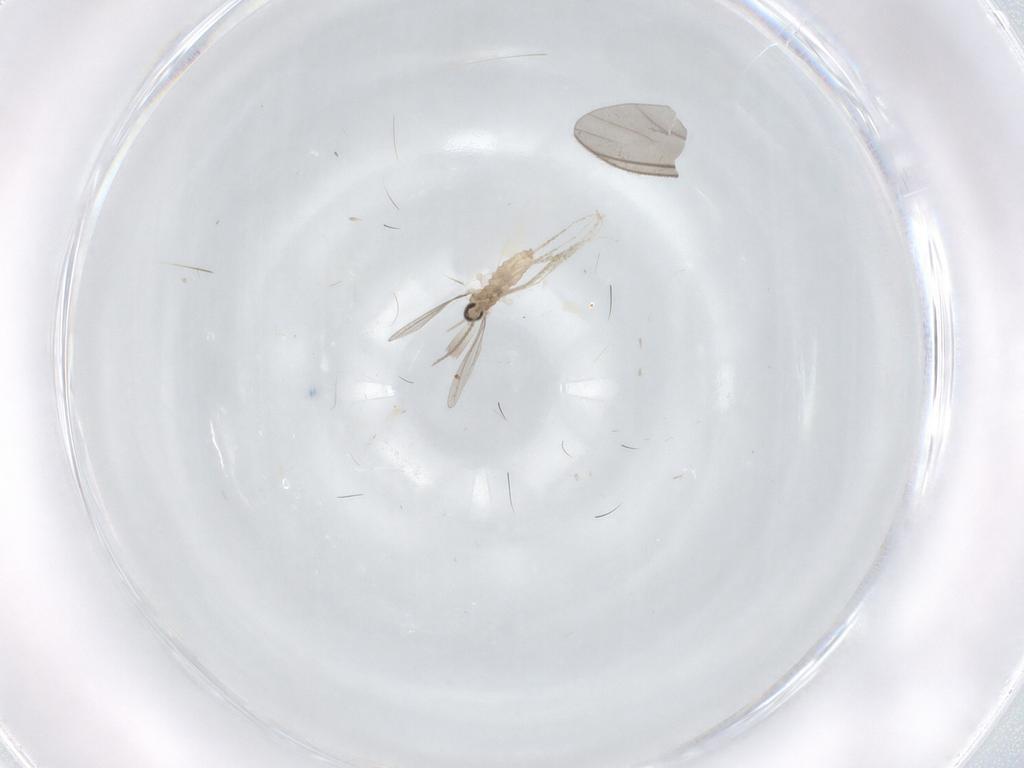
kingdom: Animalia
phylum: Arthropoda
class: Insecta
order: Diptera
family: Phoridae
